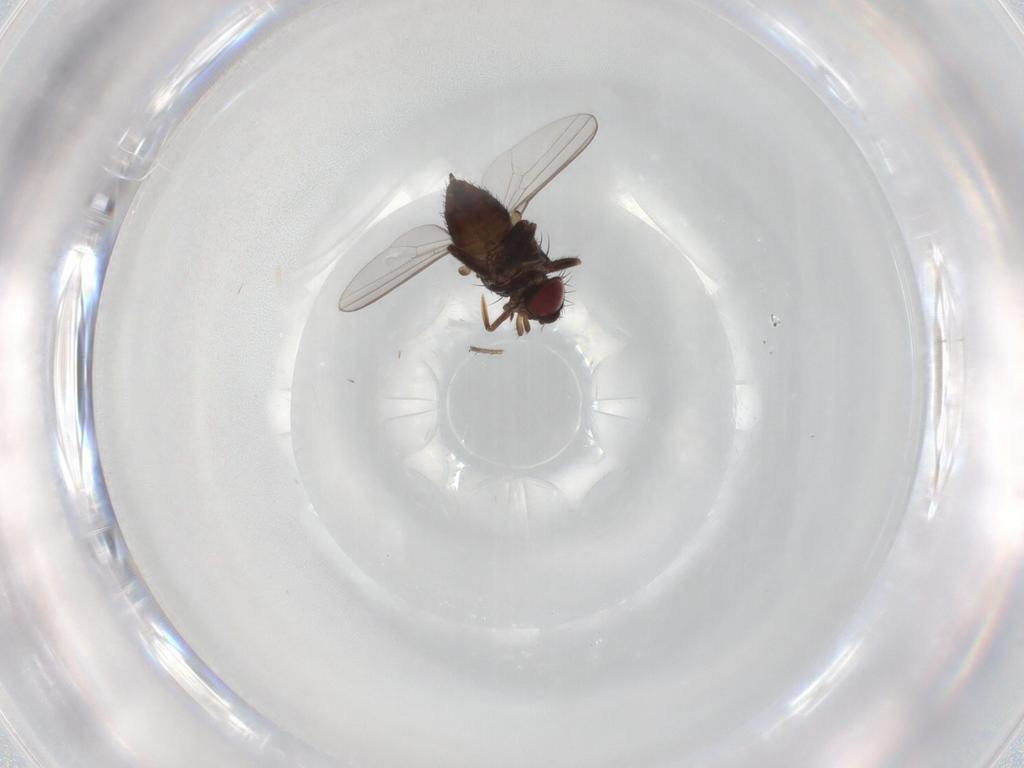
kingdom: Animalia
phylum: Arthropoda
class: Insecta
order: Diptera
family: Milichiidae
